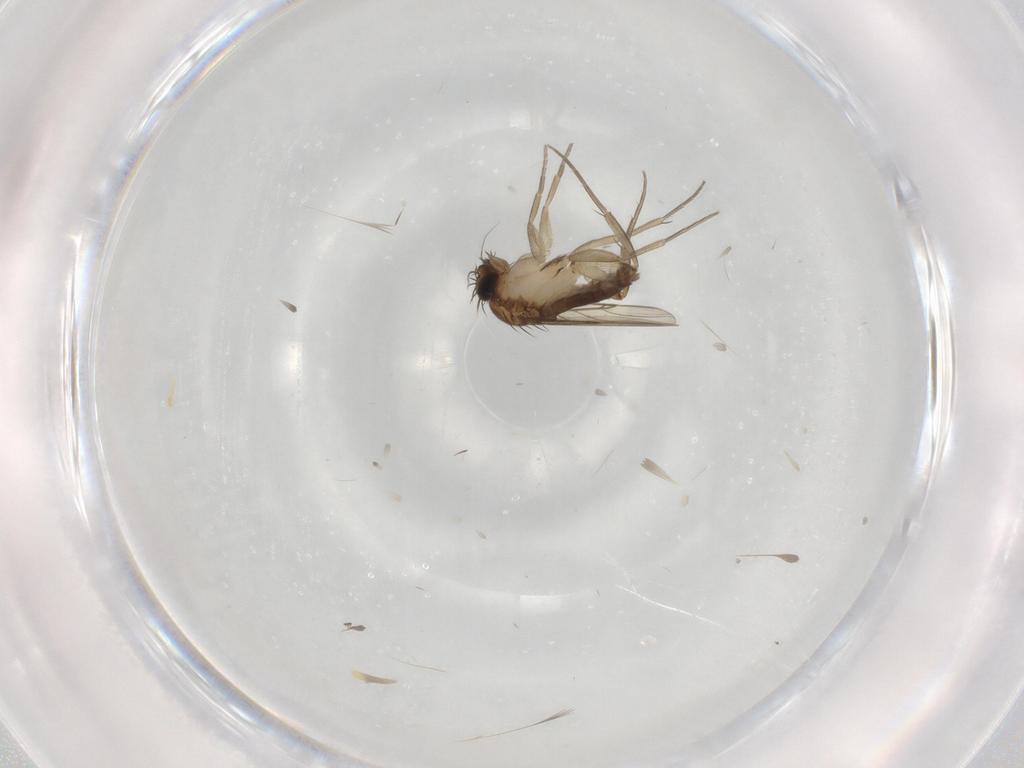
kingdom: Animalia
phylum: Arthropoda
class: Insecta
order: Diptera
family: Phoridae
